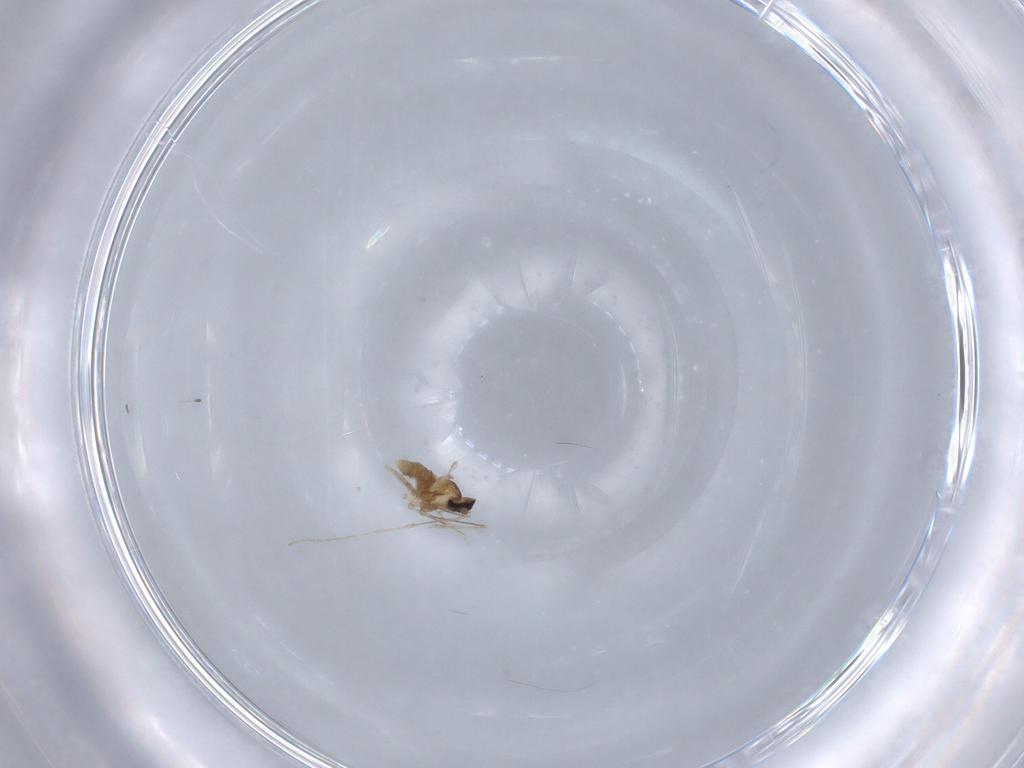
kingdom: Animalia
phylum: Arthropoda
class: Insecta
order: Diptera
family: Cecidomyiidae
